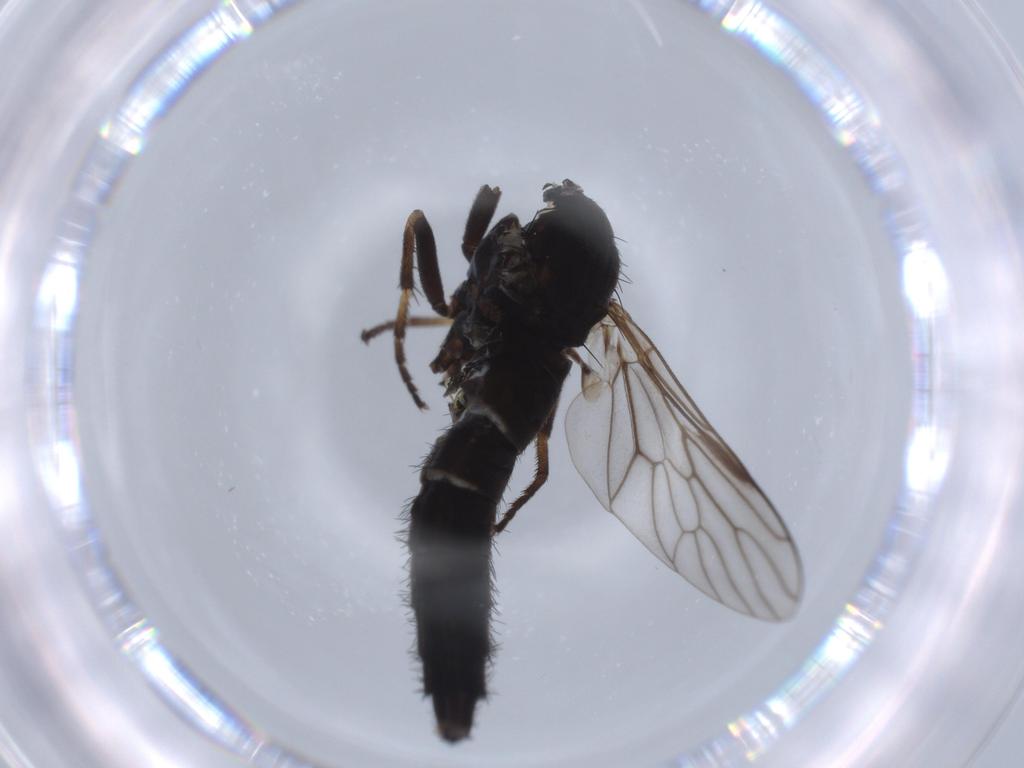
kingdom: Animalia
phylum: Arthropoda
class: Insecta
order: Diptera
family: Therevidae
